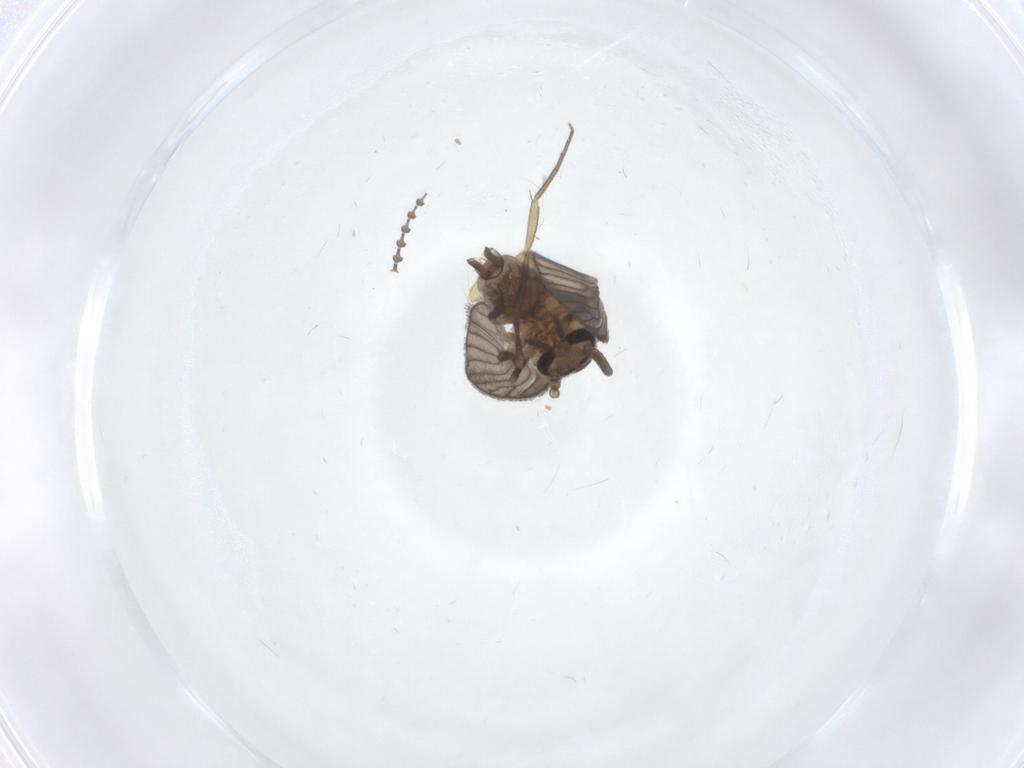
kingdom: Animalia
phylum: Arthropoda
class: Insecta
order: Diptera
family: Psychodidae
